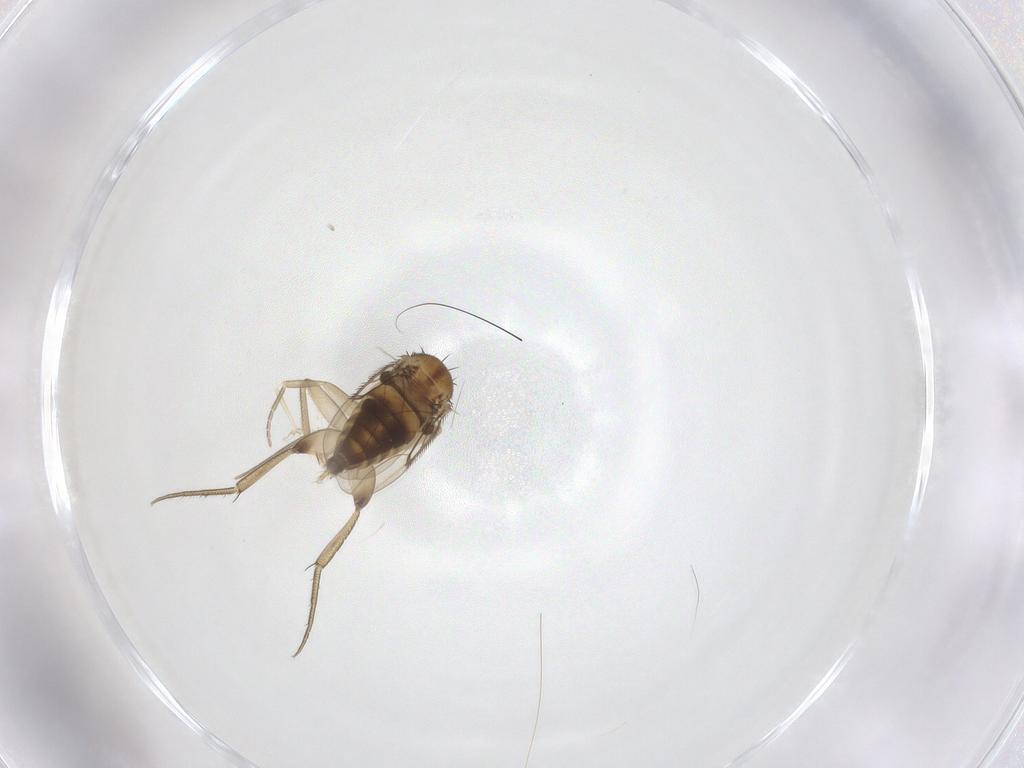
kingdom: Animalia
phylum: Arthropoda
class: Insecta
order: Diptera
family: Phoridae
